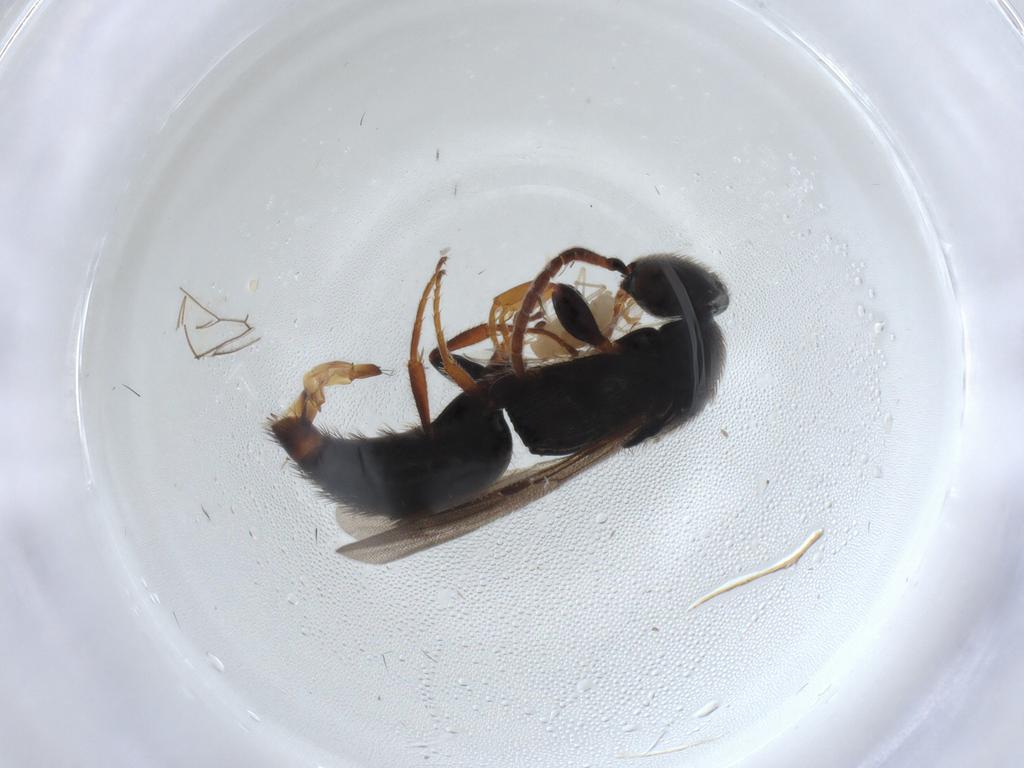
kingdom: Animalia
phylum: Arthropoda
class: Insecta
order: Hymenoptera
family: Bethylidae
